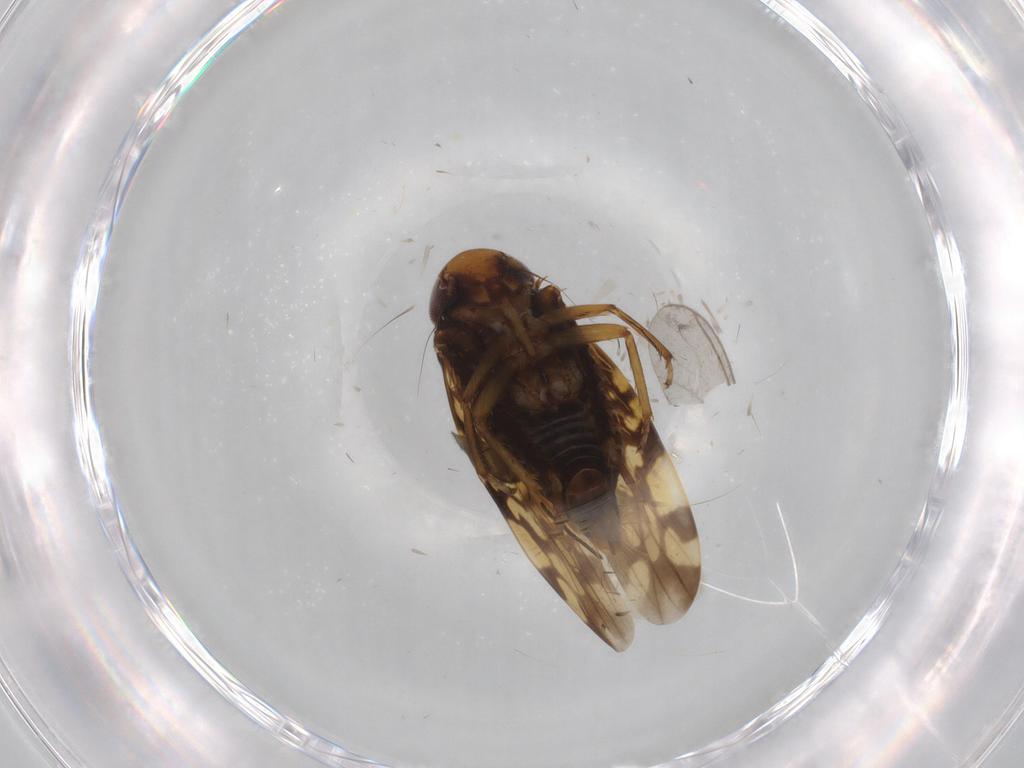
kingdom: Animalia
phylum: Arthropoda
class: Insecta
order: Hemiptera
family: Cicadellidae
